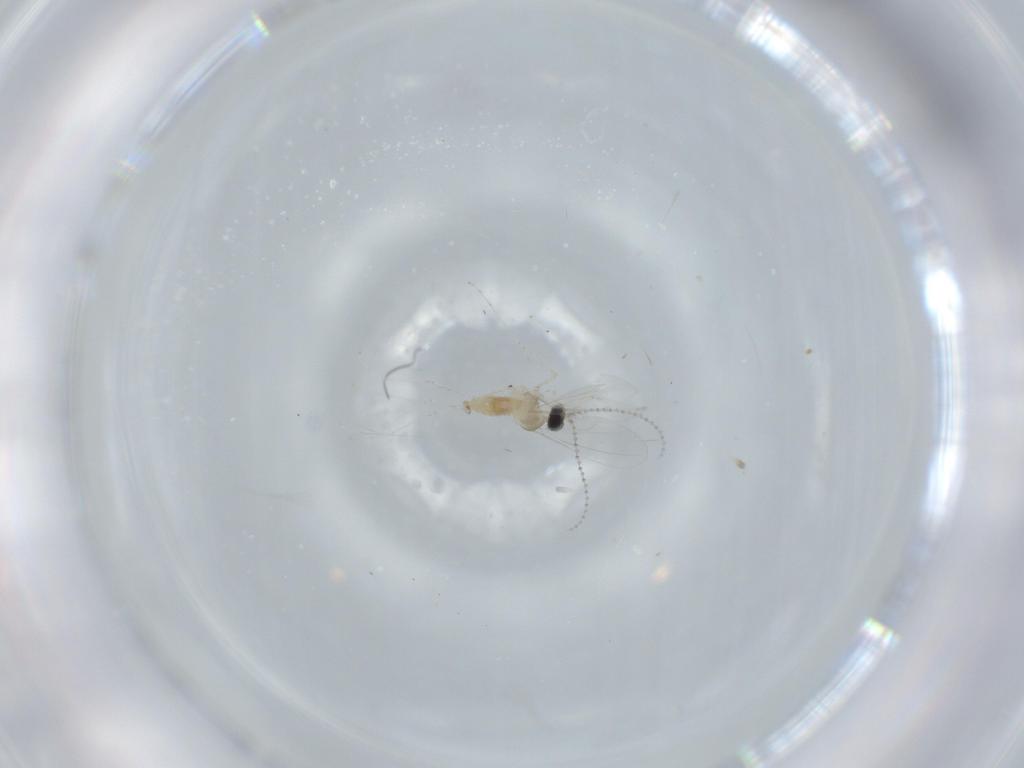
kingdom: Animalia
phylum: Arthropoda
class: Insecta
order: Diptera
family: Cecidomyiidae
